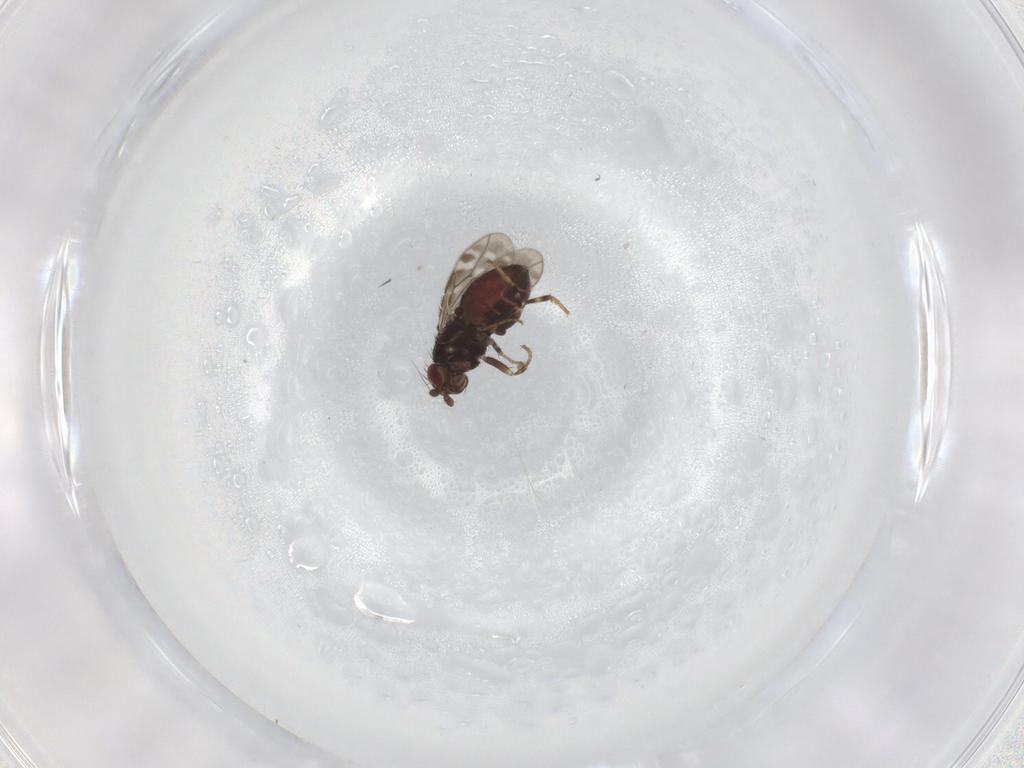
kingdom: Animalia
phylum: Arthropoda
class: Insecta
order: Diptera
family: Sphaeroceridae
